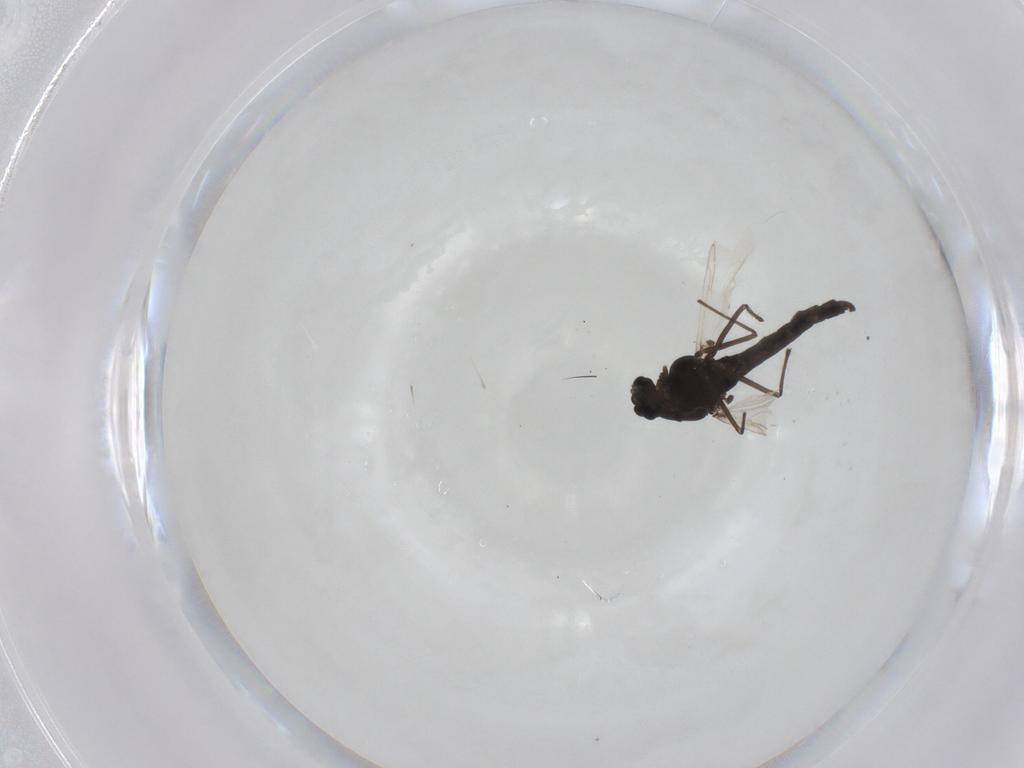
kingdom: Animalia
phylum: Arthropoda
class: Insecta
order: Diptera
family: Chironomidae
